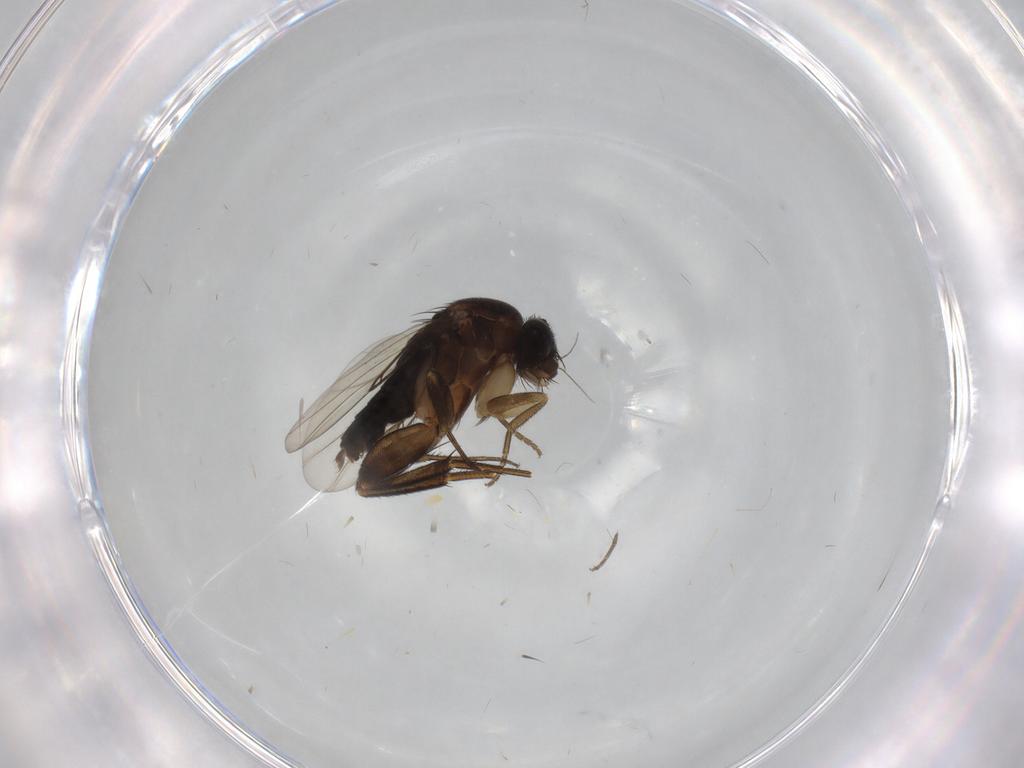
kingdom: Animalia
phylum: Arthropoda
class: Insecta
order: Diptera
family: Phoridae
